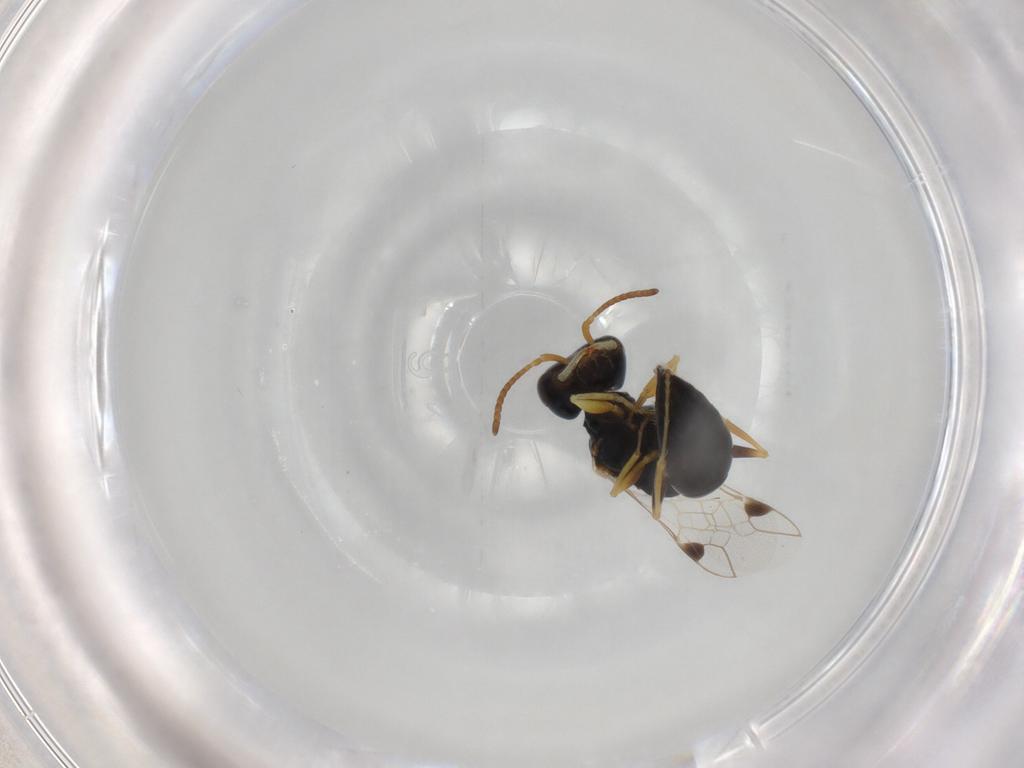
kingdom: Animalia
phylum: Arthropoda
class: Insecta
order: Hymenoptera
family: Pemphredonidae
